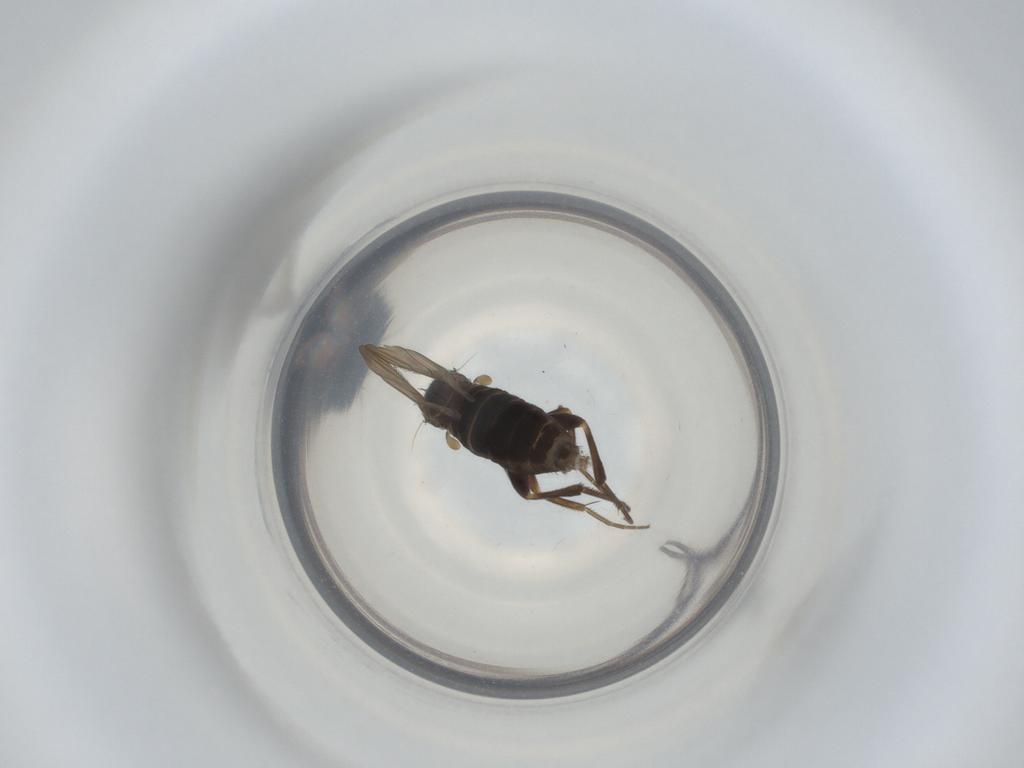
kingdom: Animalia
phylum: Arthropoda
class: Insecta
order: Diptera
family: Phoridae
